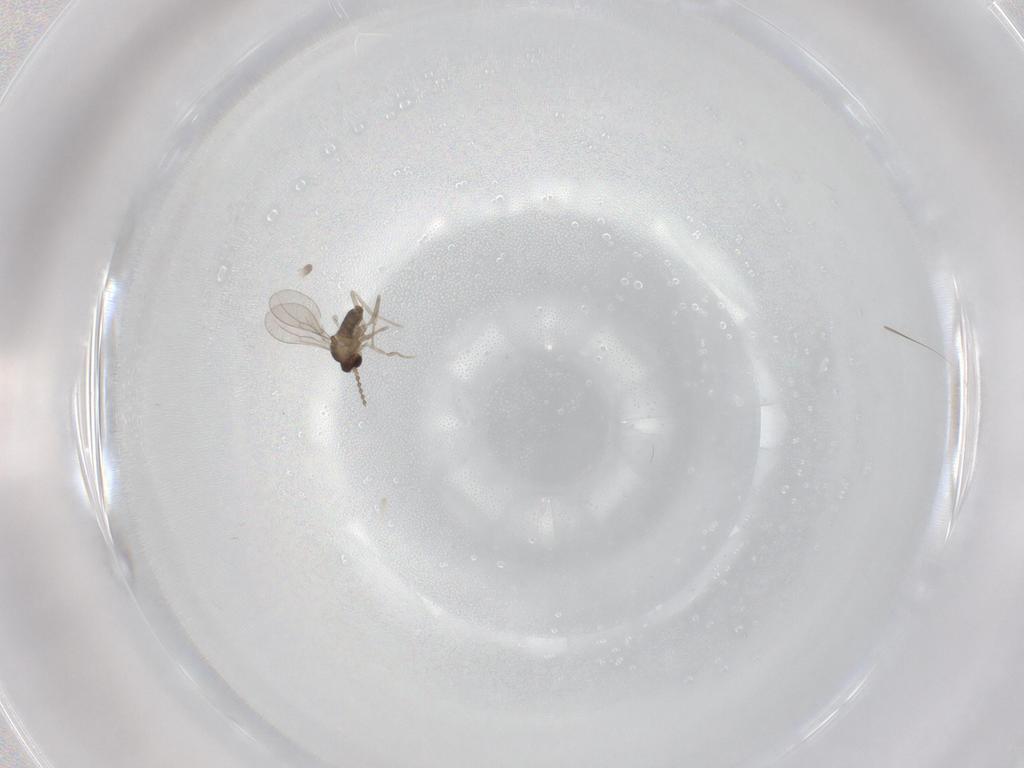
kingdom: Animalia
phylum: Arthropoda
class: Insecta
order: Diptera
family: Cecidomyiidae
